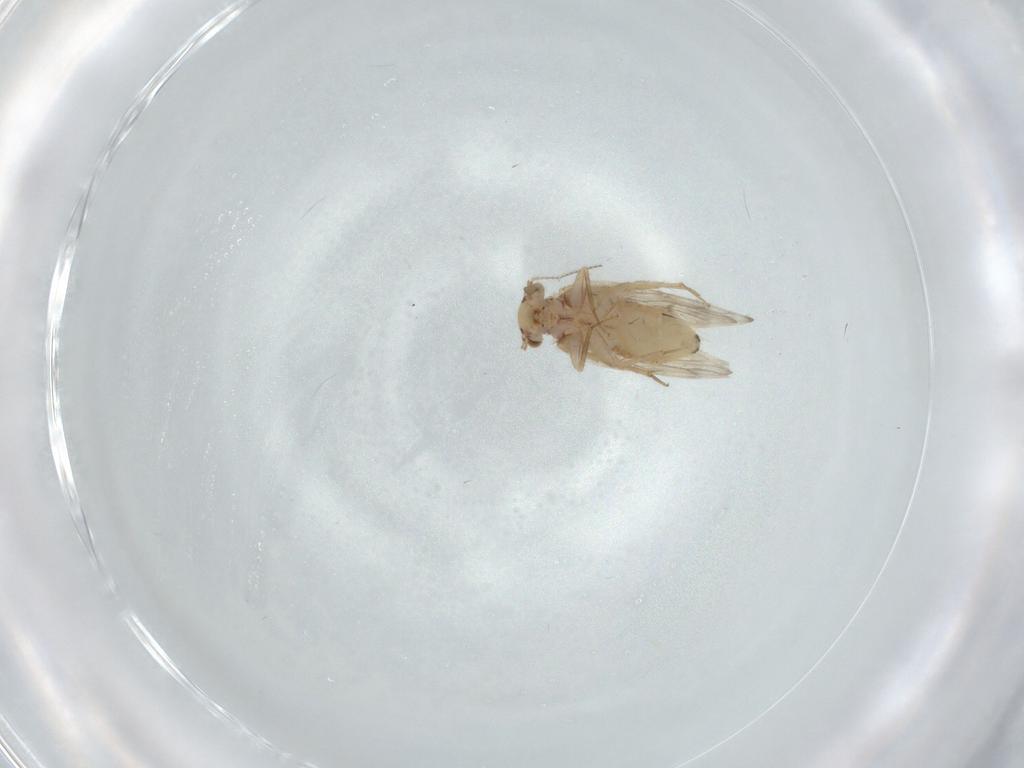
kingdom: Animalia
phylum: Arthropoda
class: Insecta
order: Psocodea
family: Lepidopsocidae
